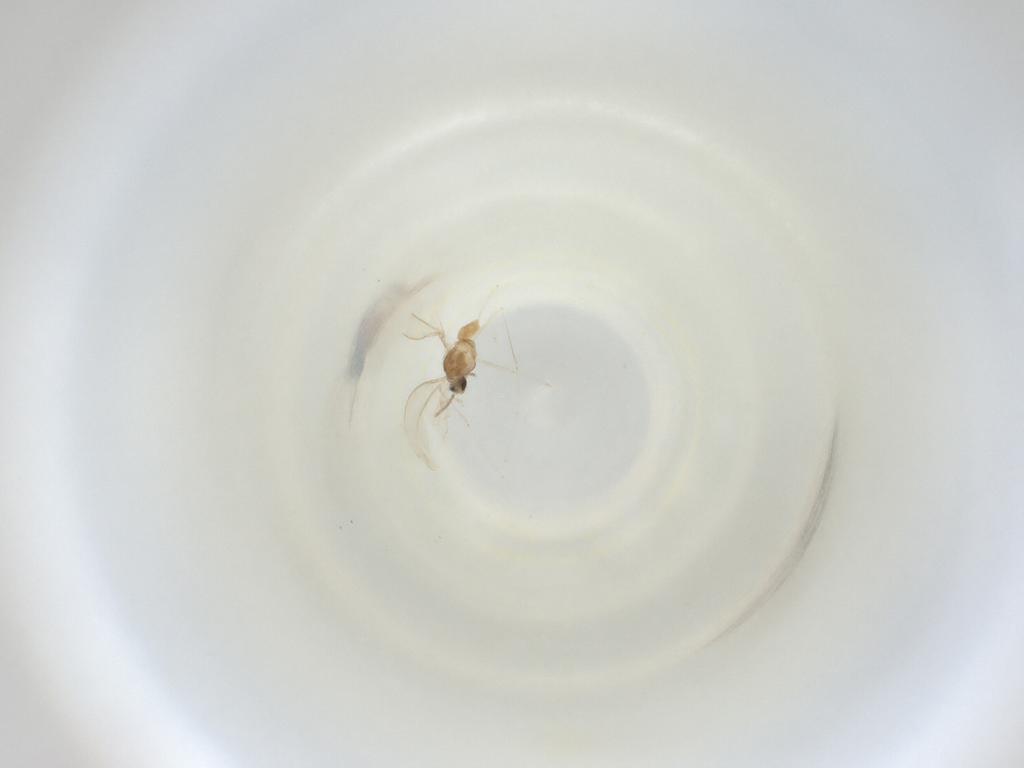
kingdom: Animalia
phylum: Arthropoda
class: Insecta
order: Diptera
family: Cecidomyiidae
